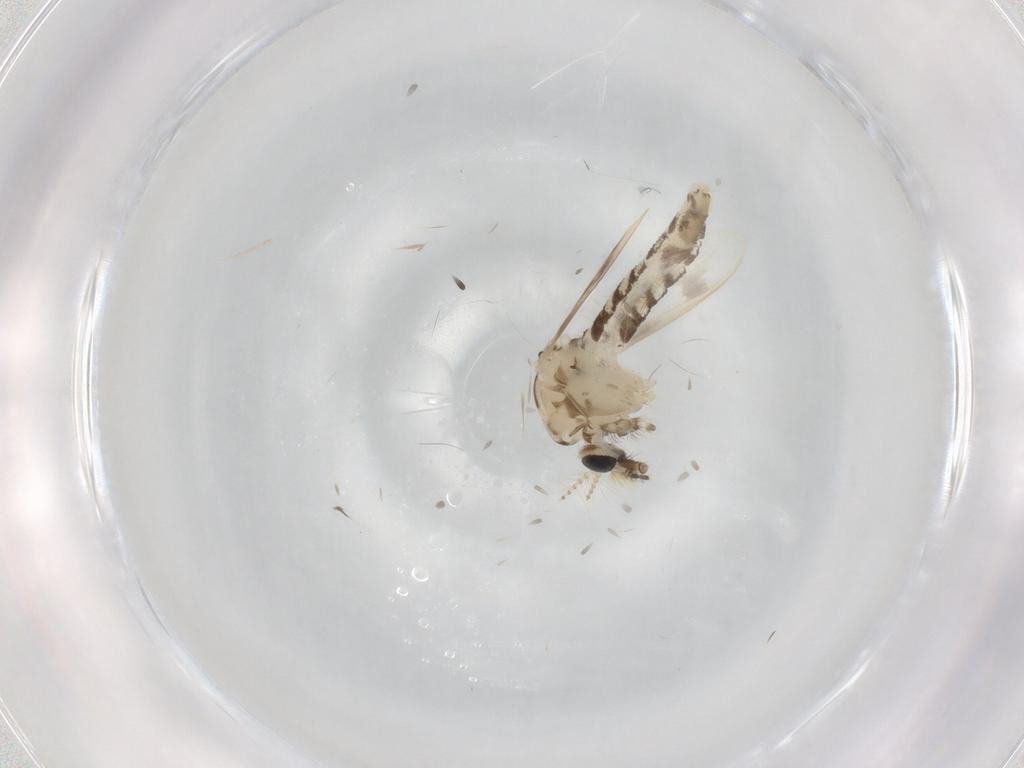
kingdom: Animalia
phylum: Arthropoda
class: Insecta
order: Diptera
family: Corethrellidae
